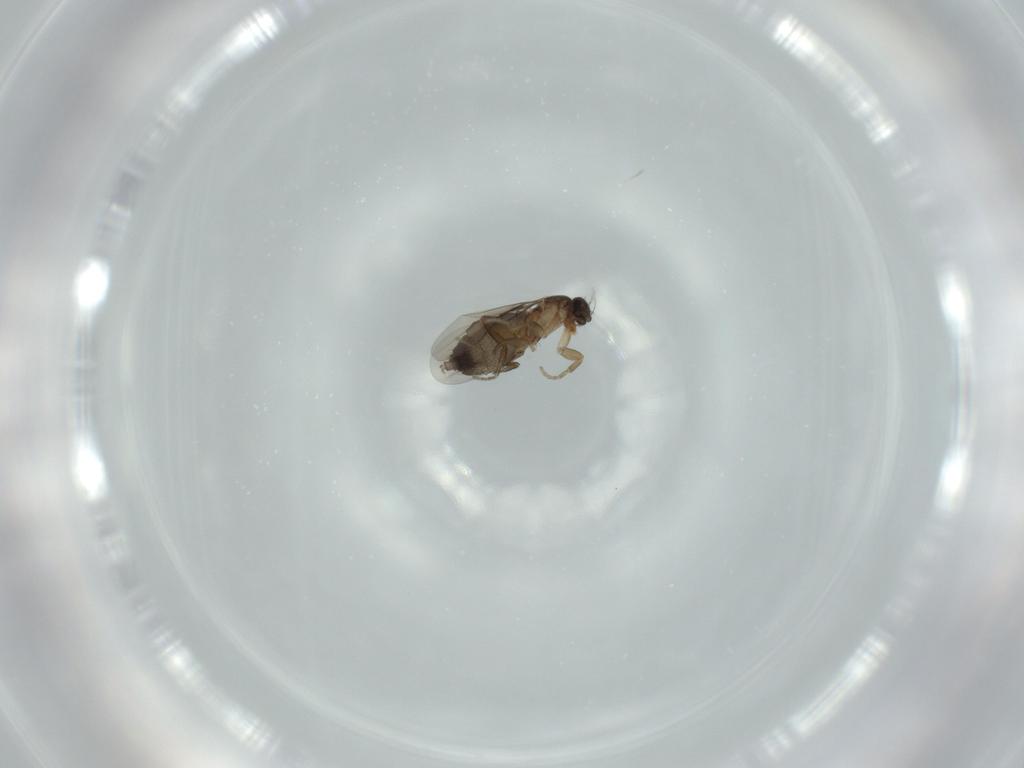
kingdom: Animalia
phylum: Arthropoda
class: Insecta
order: Diptera
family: Phoridae
